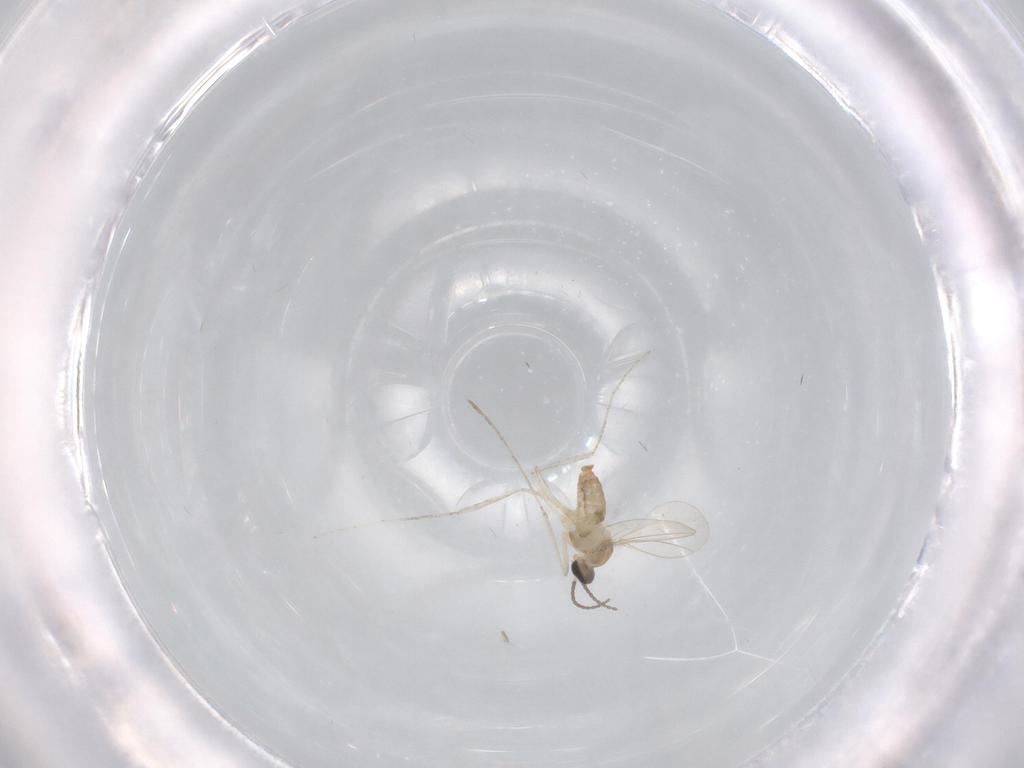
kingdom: Animalia
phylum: Arthropoda
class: Insecta
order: Diptera
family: Cecidomyiidae
